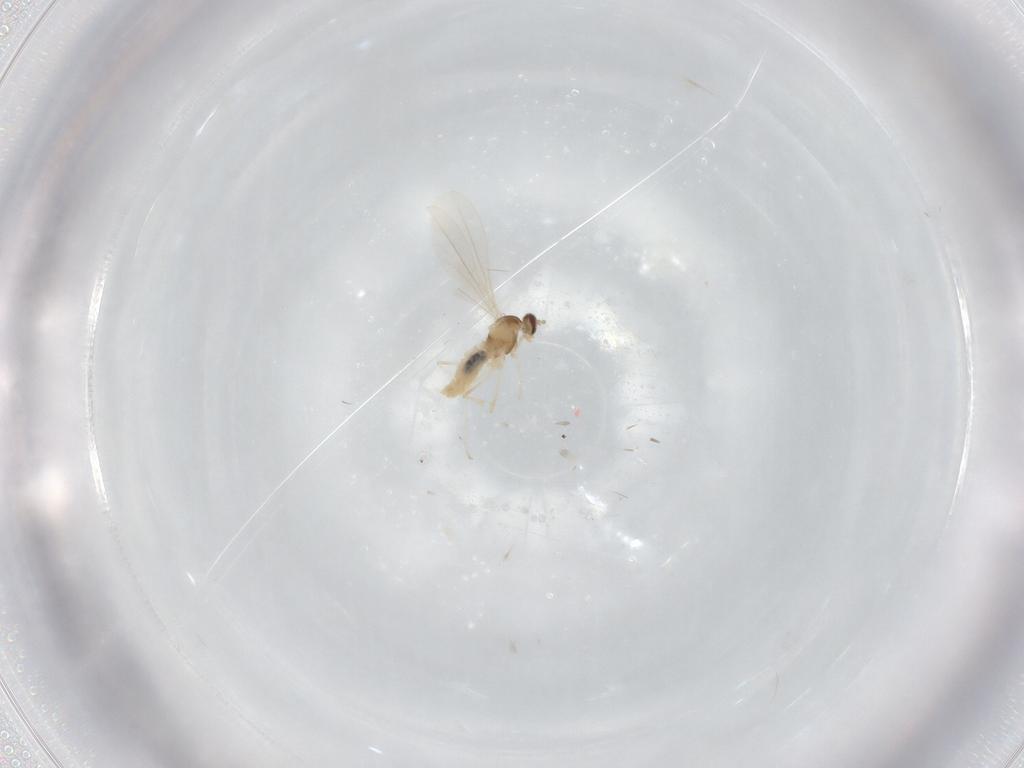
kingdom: Animalia
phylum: Arthropoda
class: Insecta
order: Diptera
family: Cecidomyiidae
